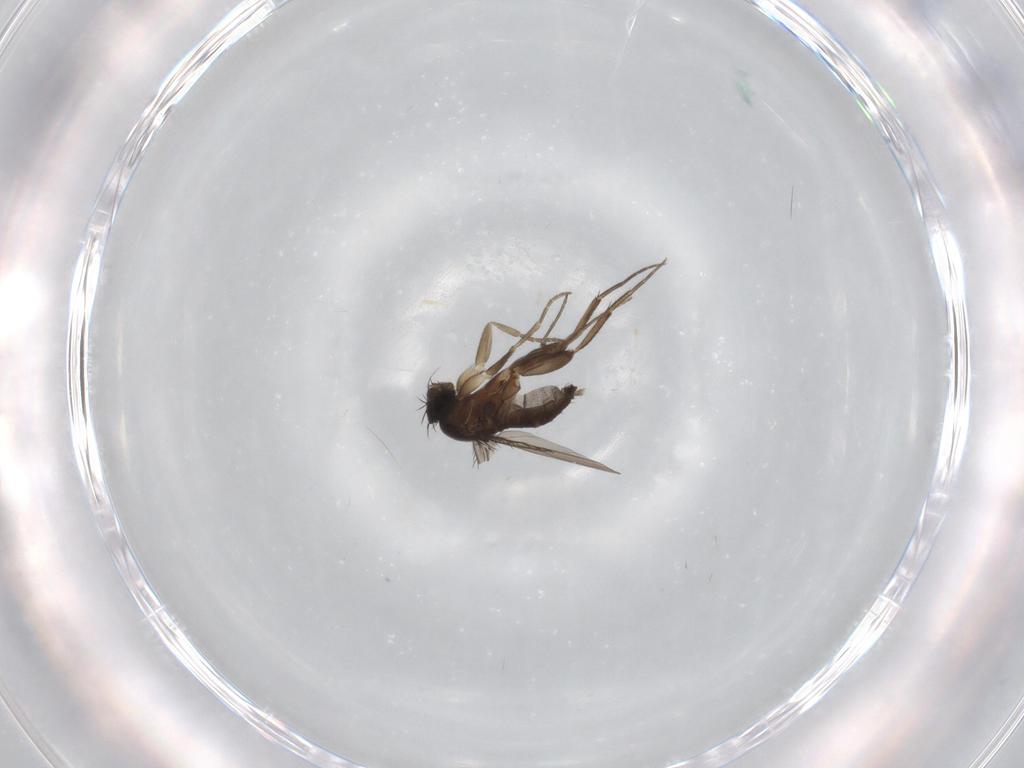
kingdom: Animalia
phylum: Arthropoda
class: Insecta
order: Diptera
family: Phoridae
